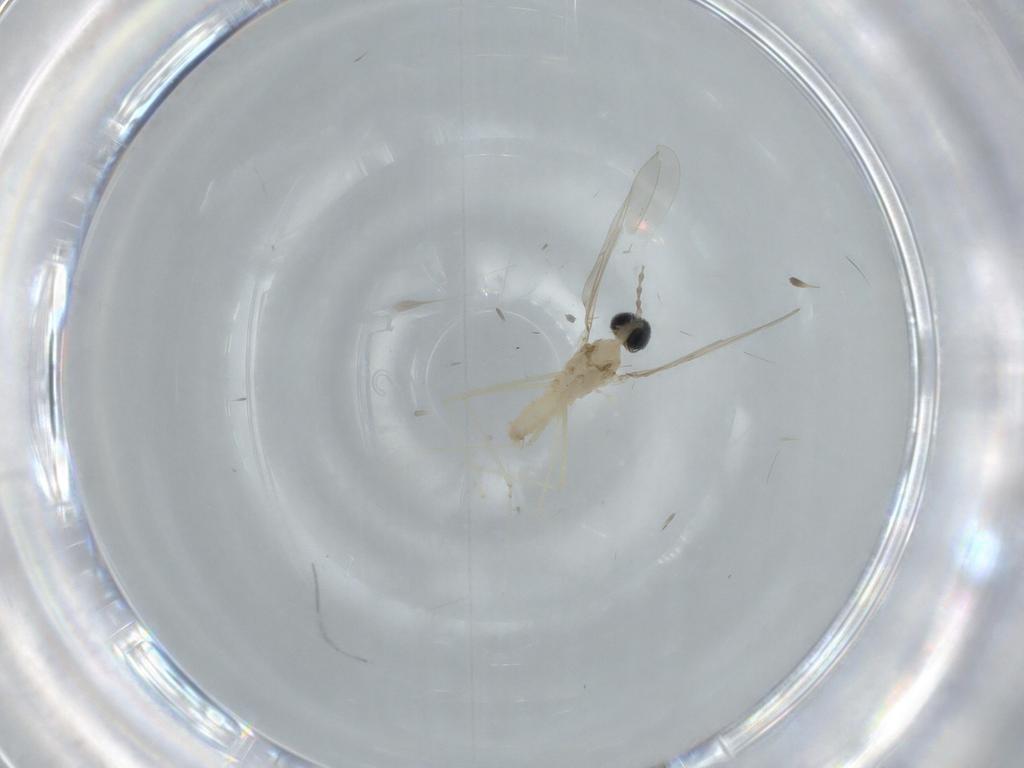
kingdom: Animalia
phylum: Arthropoda
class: Insecta
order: Diptera
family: Cecidomyiidae
